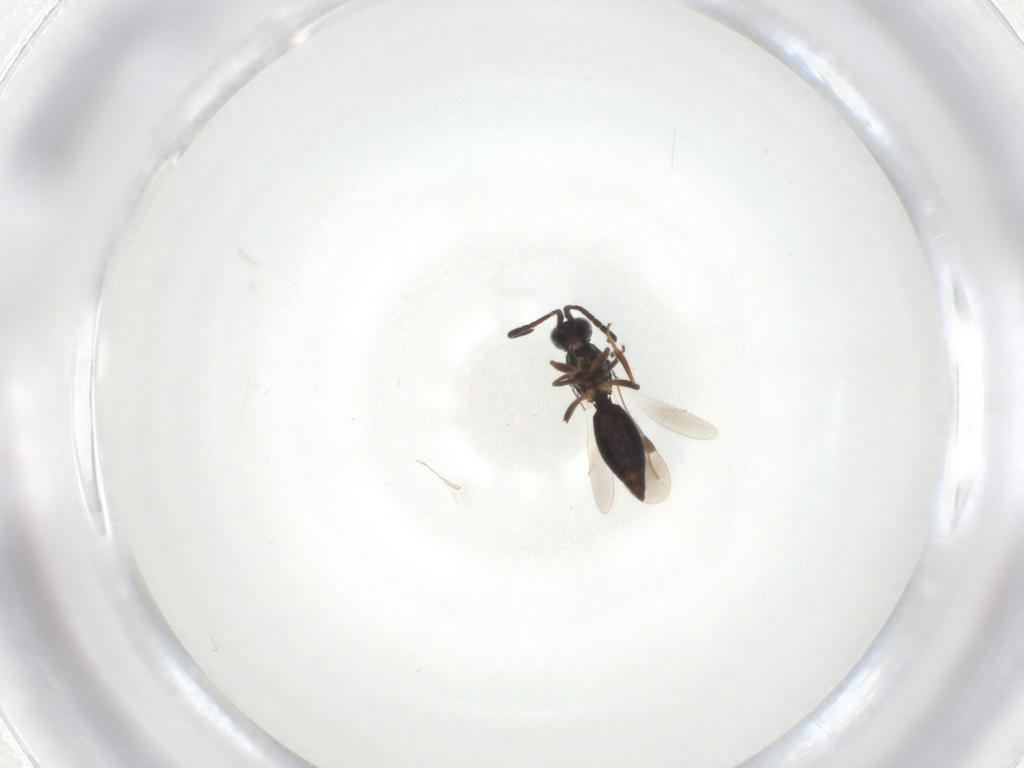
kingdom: Animalia
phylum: Arthropoda
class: Insecta
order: Hymenoptera
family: Megaspilidae
